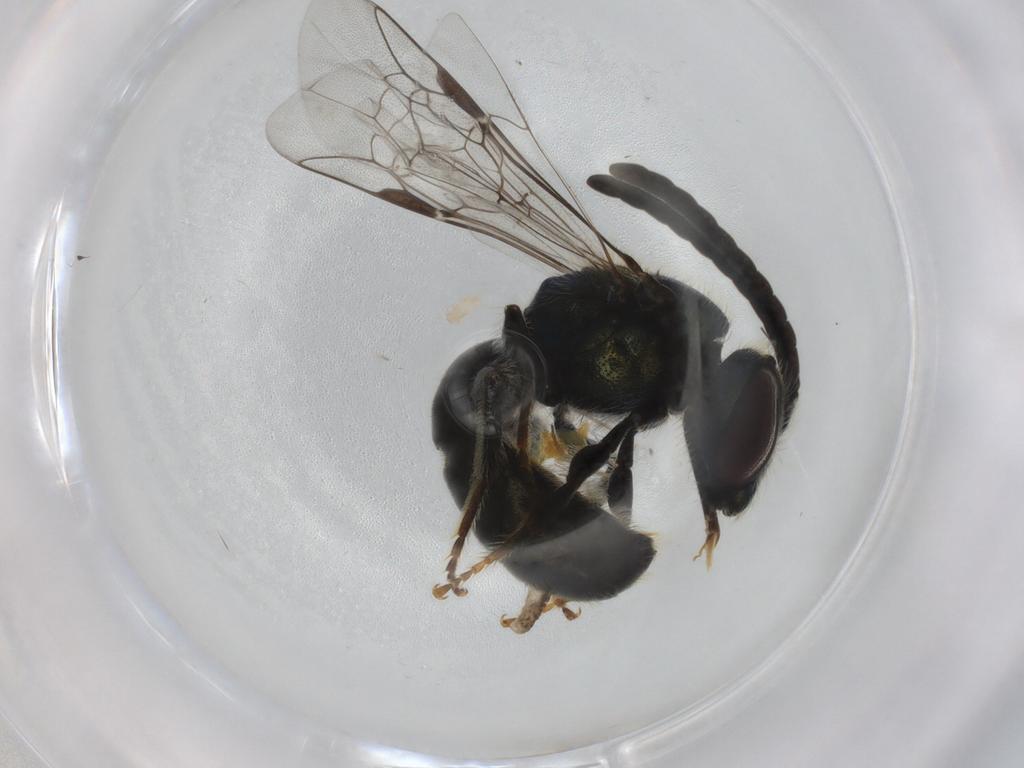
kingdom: Animalia
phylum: Arthropoda
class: Insecta
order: Hymenoptera
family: Halictidae
